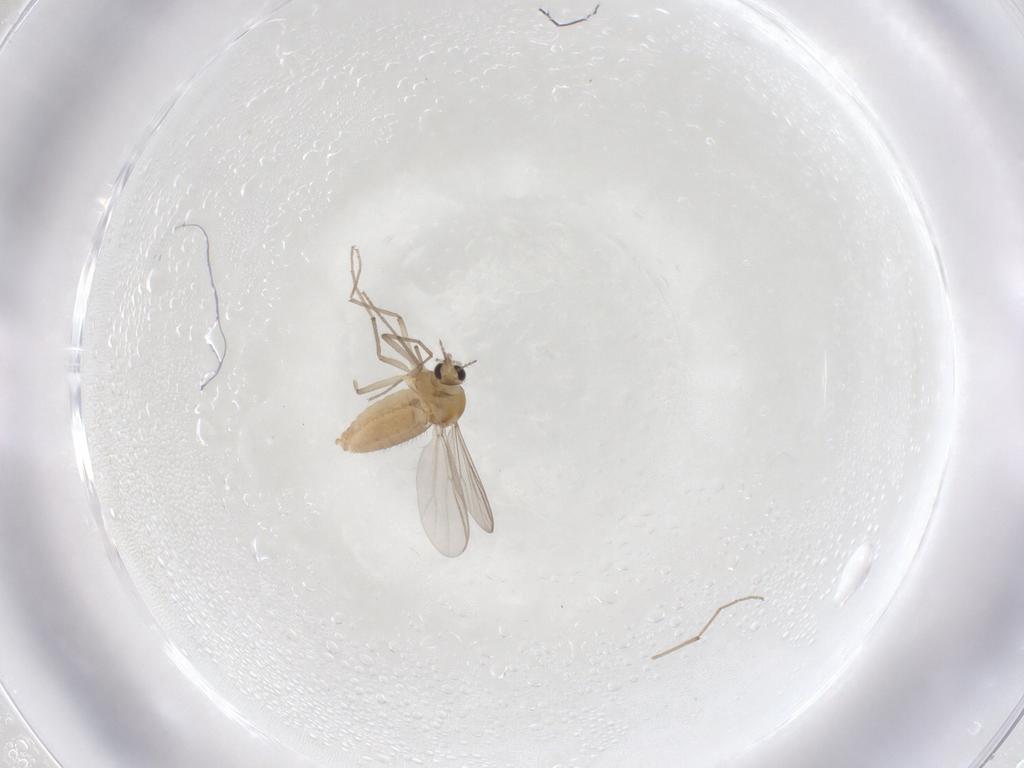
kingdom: Animalia
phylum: Arthropoda
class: Insecta
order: Diptera
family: Chironomidae
